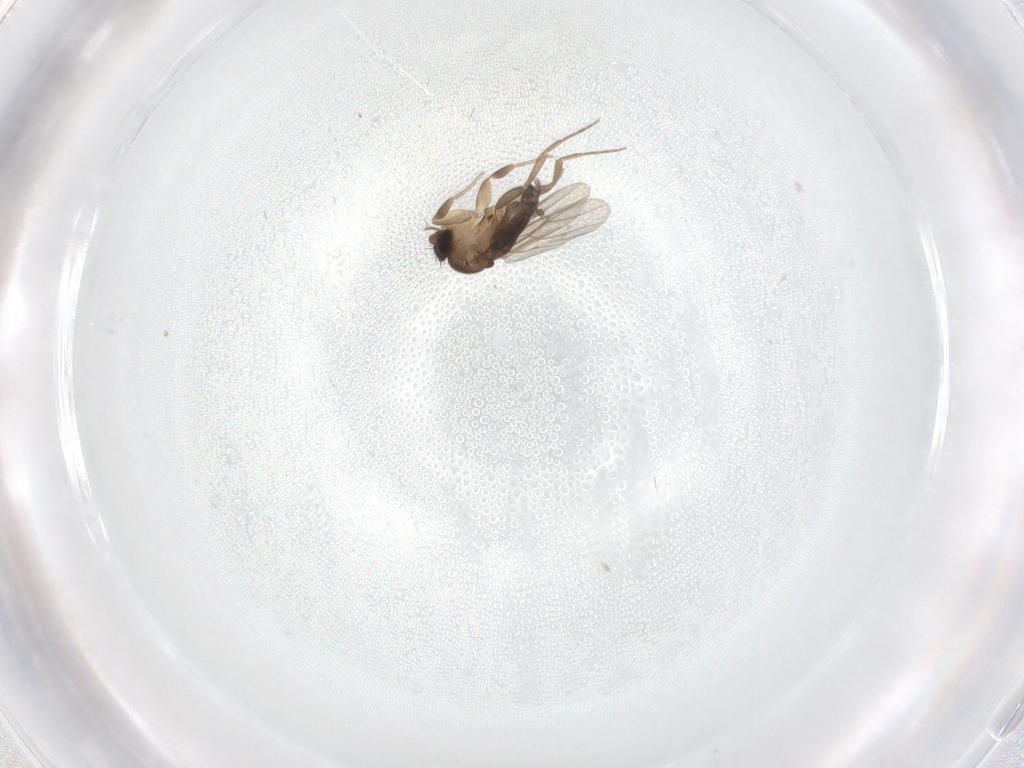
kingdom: Animalia
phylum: Arthropoda
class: Insecta
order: Diptera
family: Phoridae
